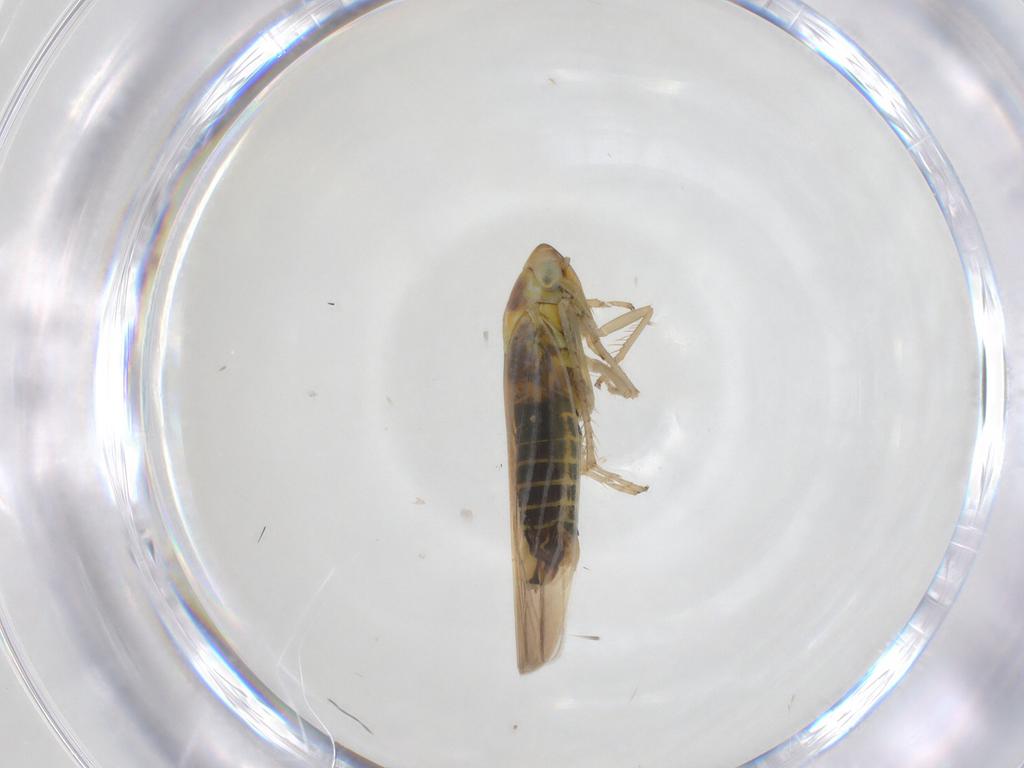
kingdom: Animalia
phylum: Arthropoda
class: Insecta
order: Hemiptera
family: Cicadellidae
